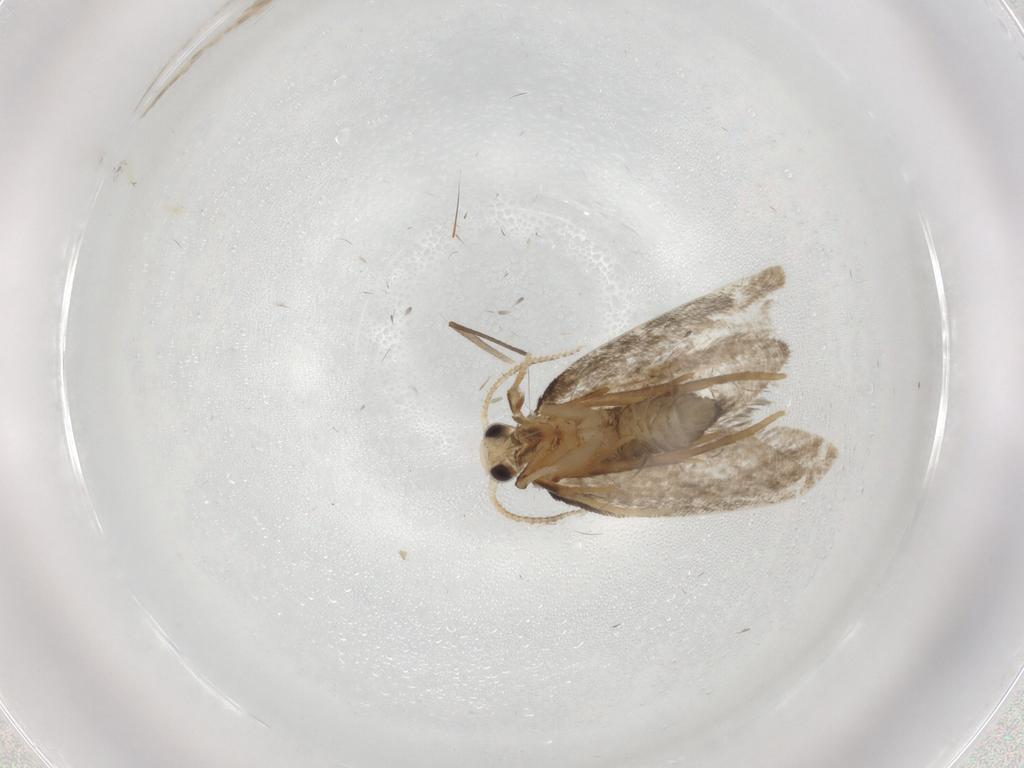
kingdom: Animalia
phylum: Arthropoda
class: Insecta
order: Lepidoptera
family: Psychidae
